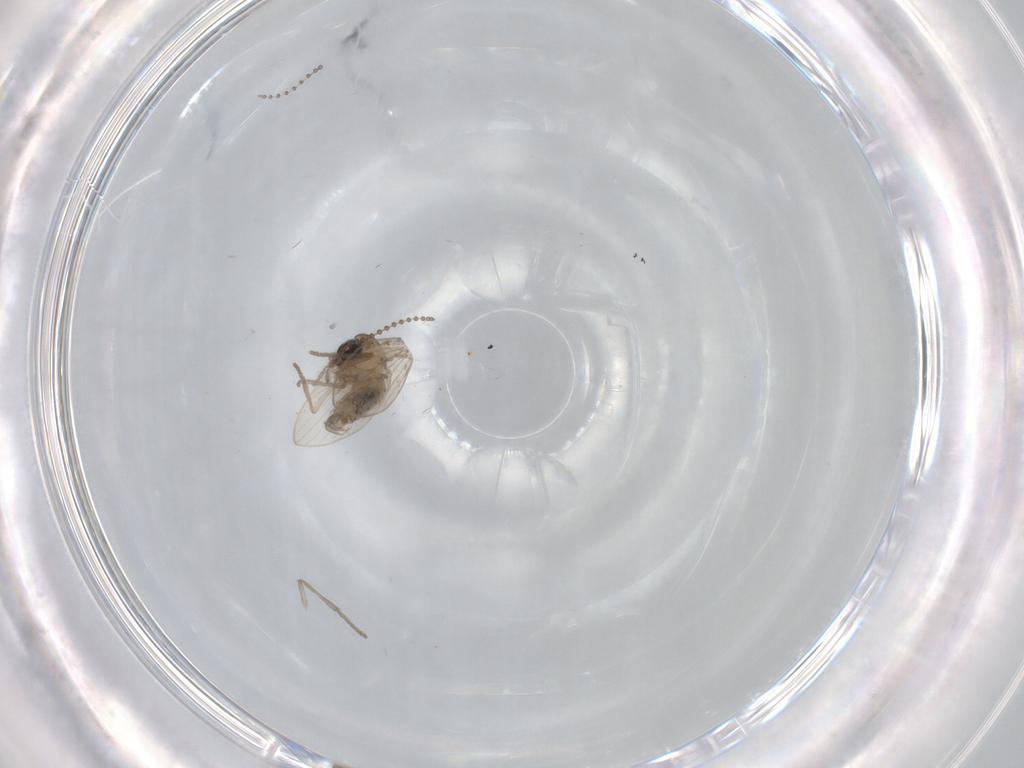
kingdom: Animalia
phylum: Arthropoda
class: Insecta
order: Diptera
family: Psychodidae
